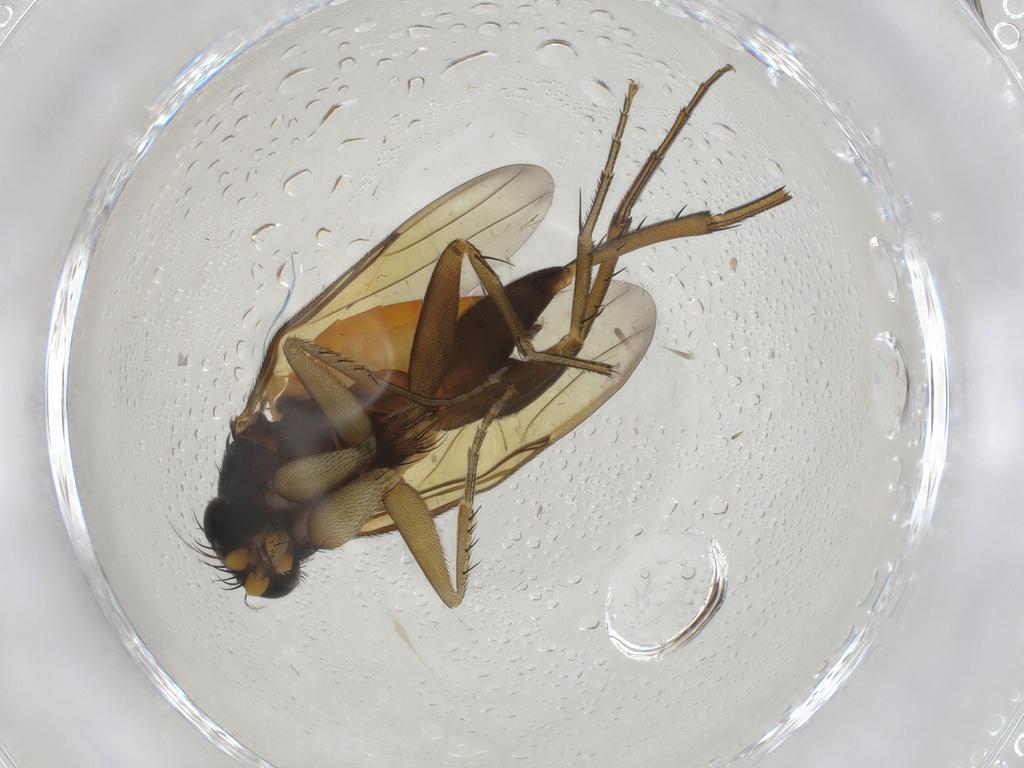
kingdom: Animalia
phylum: Arthropoda
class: Insecta
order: Diptera
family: Phoridae
